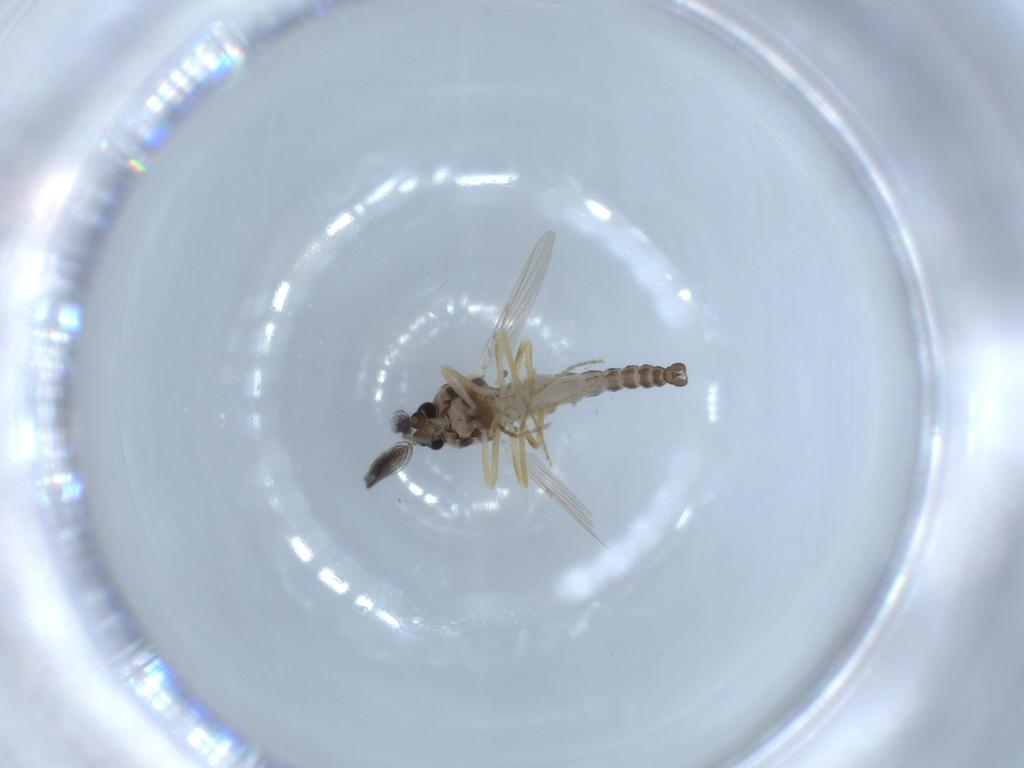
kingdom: Animalia
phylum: Arthropoda
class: Insecta
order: Diptera
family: Ceratopogonidae
